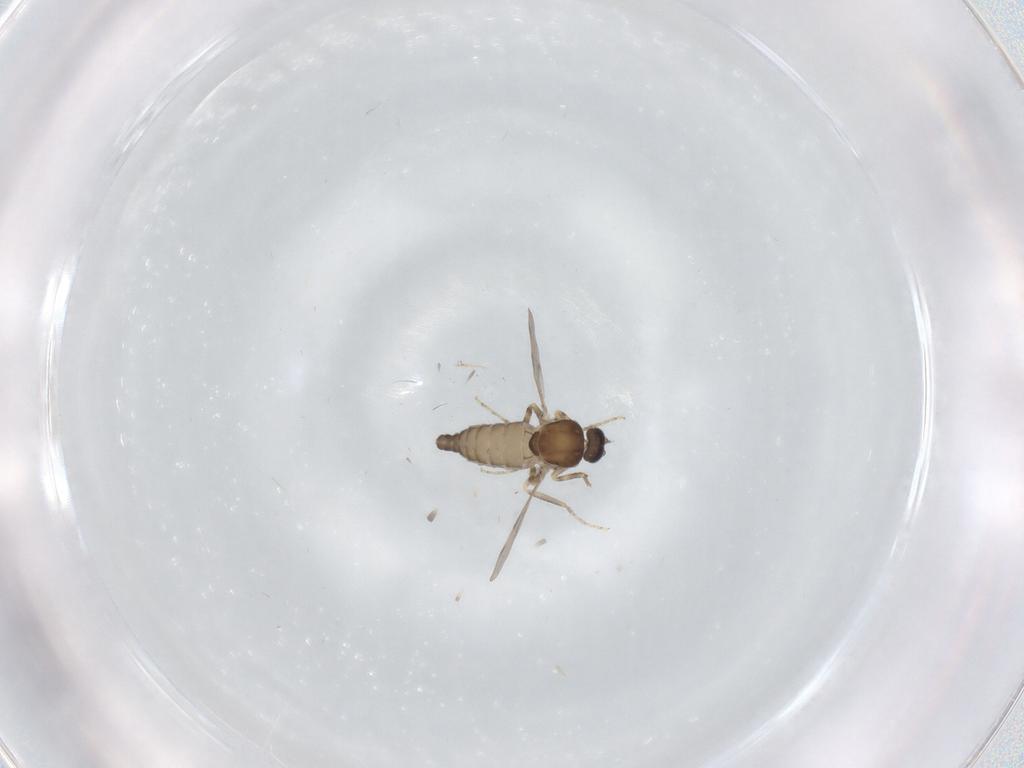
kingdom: Animalia
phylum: Arthropoda
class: Insecta
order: Diptera
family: Ceratopogonidae
